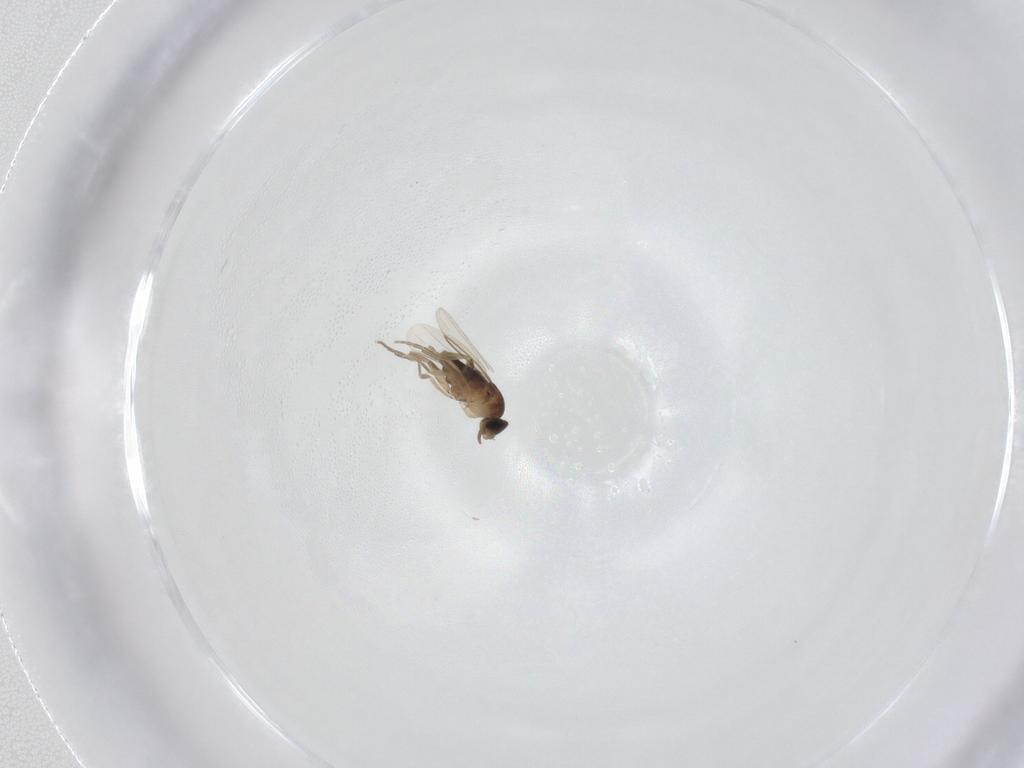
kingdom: Animalia
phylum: Arthropoda
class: Insecta
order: Diptera
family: Phoridae
